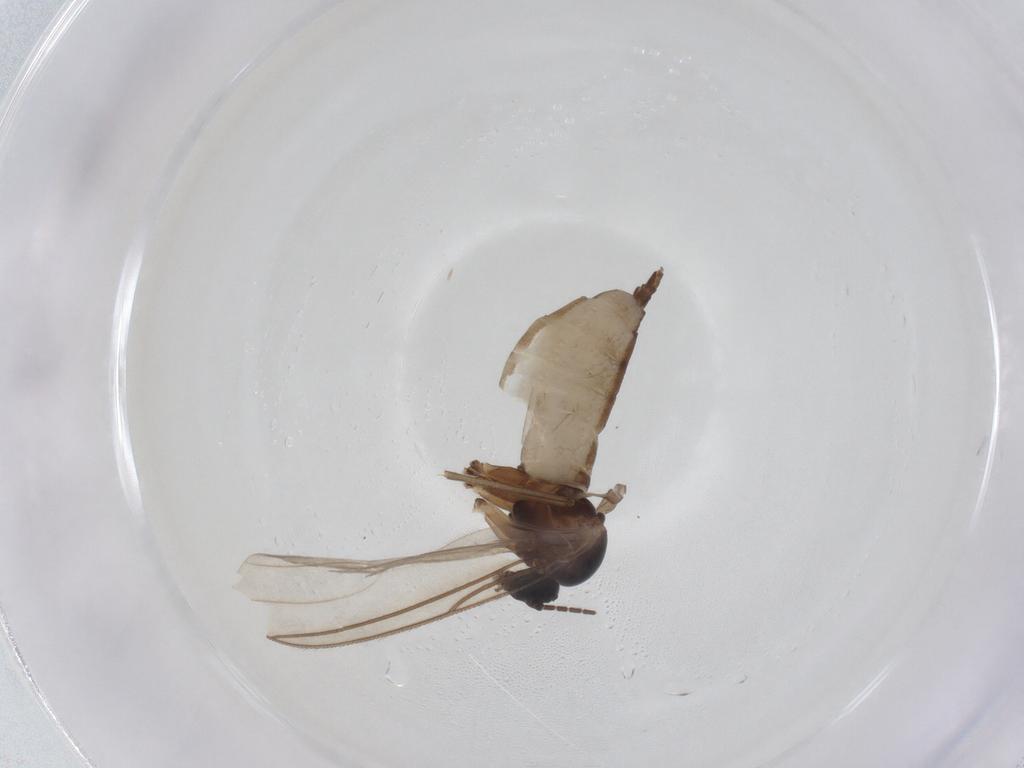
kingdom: Animalia
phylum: Arthropoda
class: Insecta
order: Diptera
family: Sciaridae
